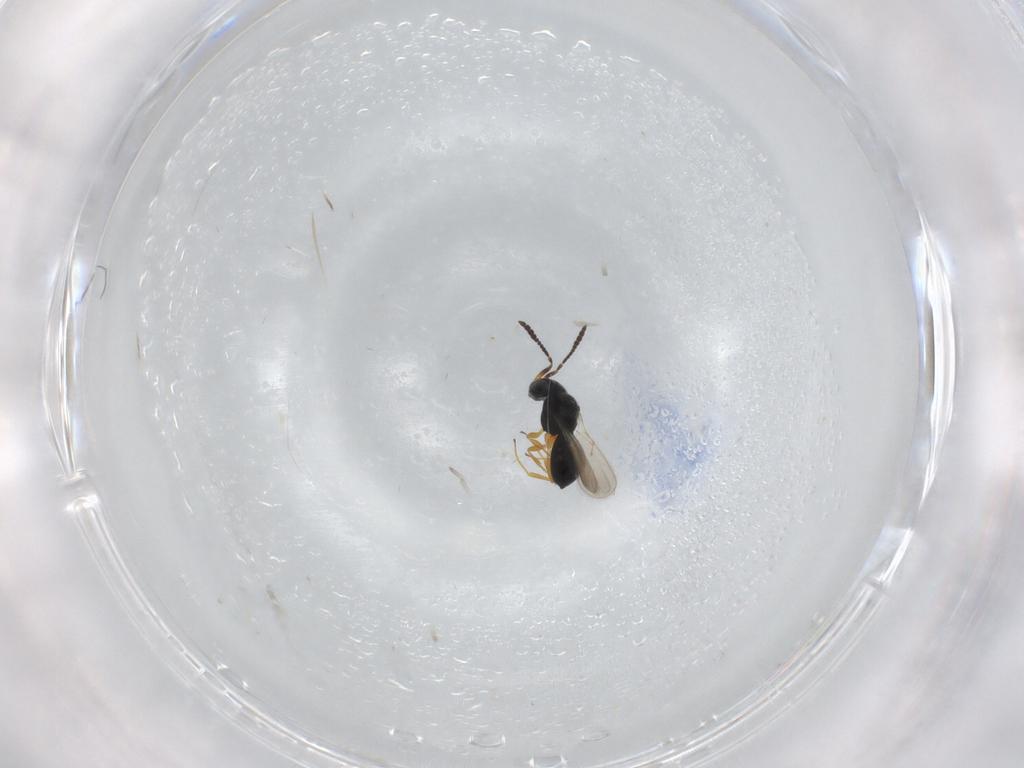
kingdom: Animalia
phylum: Arthropoda
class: Insecta
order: Hymenoptera
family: Scelionidae
